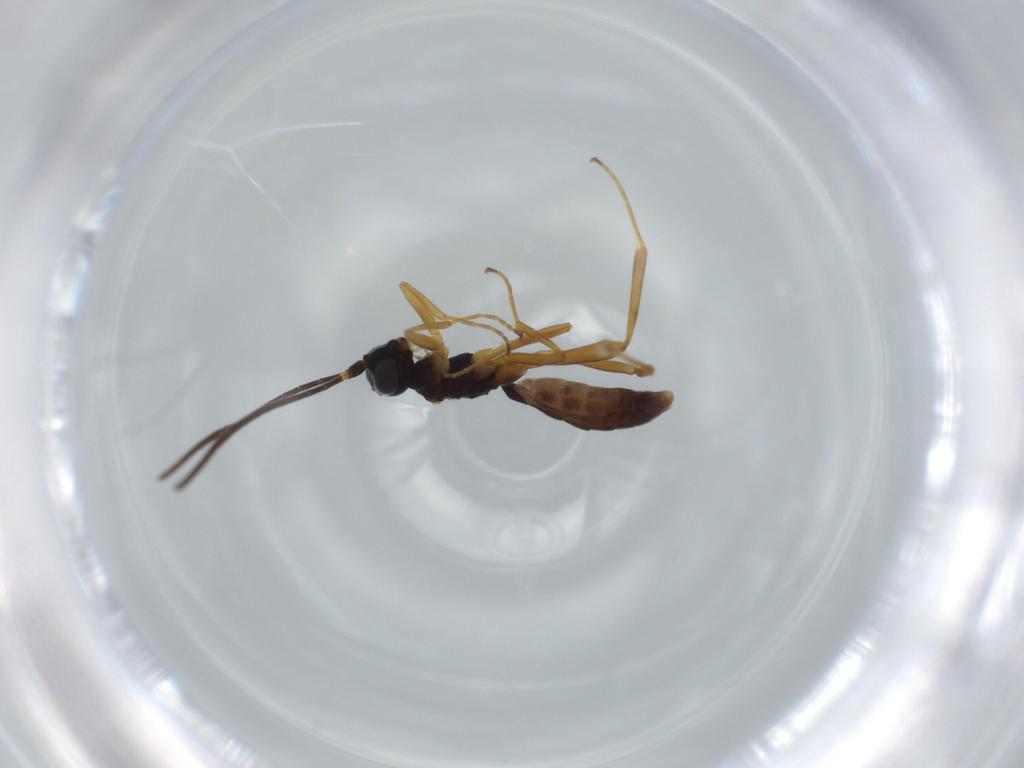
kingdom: Animalia
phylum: Arthropoda
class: Insecta
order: Hymenoptera
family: Ichneumonidae
